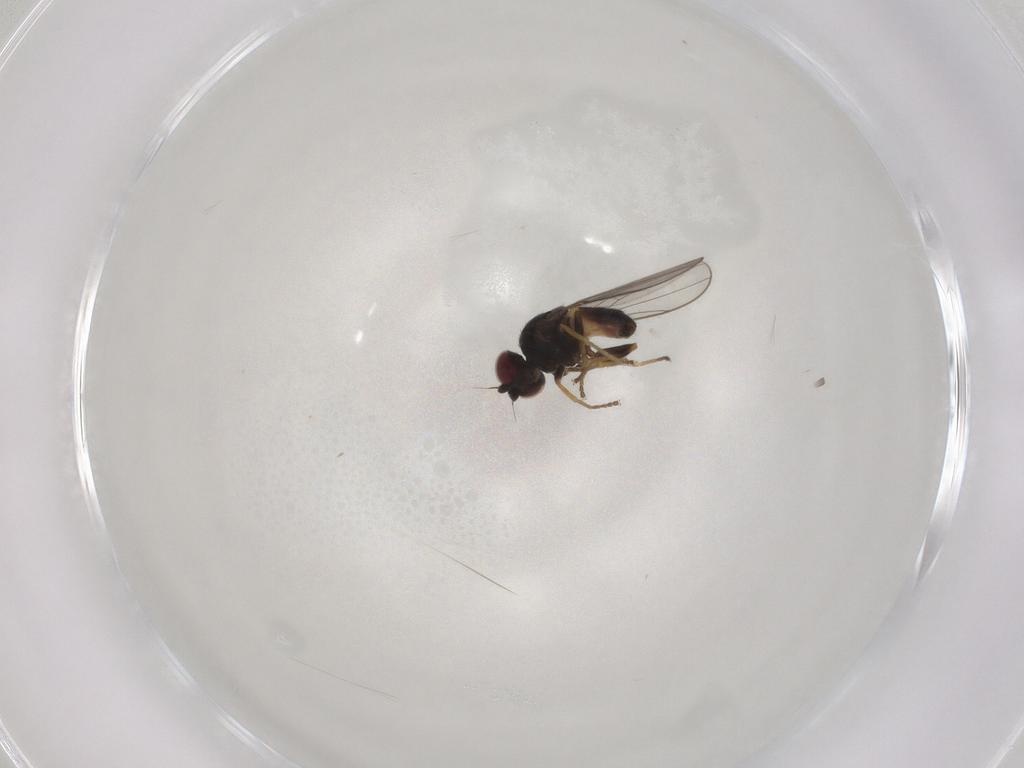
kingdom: Animalia
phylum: Arthropoda
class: Insecta
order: Diptera
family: Chloropidae
